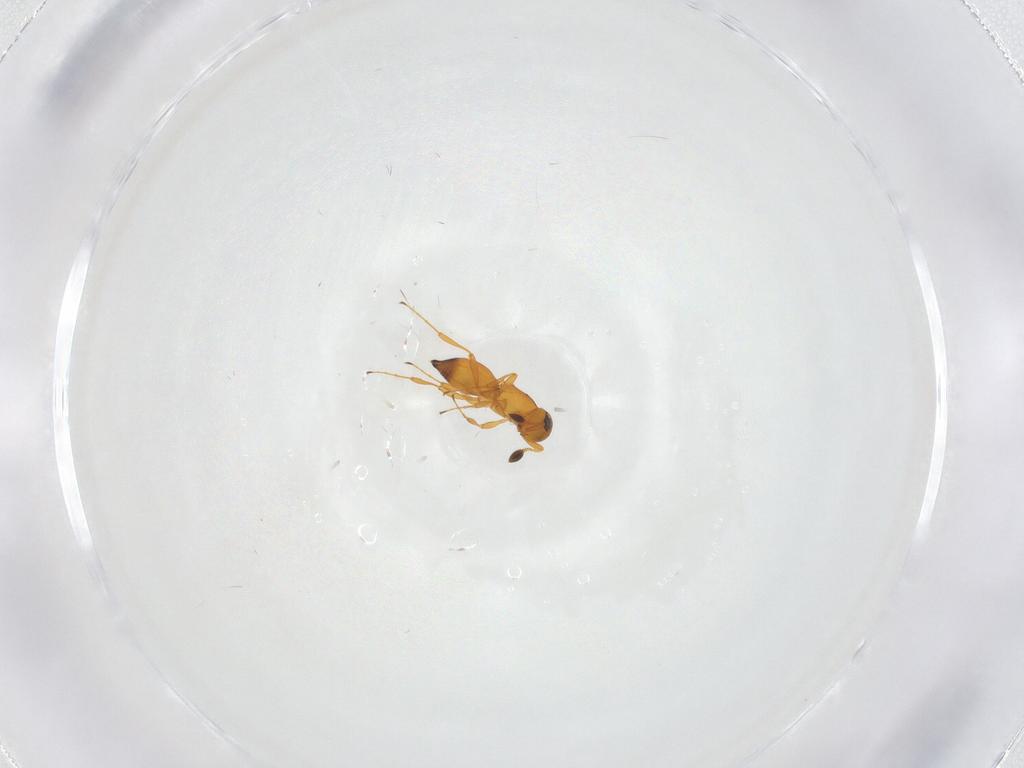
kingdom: Animalia
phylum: Arthropoda
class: Insecta
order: Hymenoptera
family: Platygastridae
